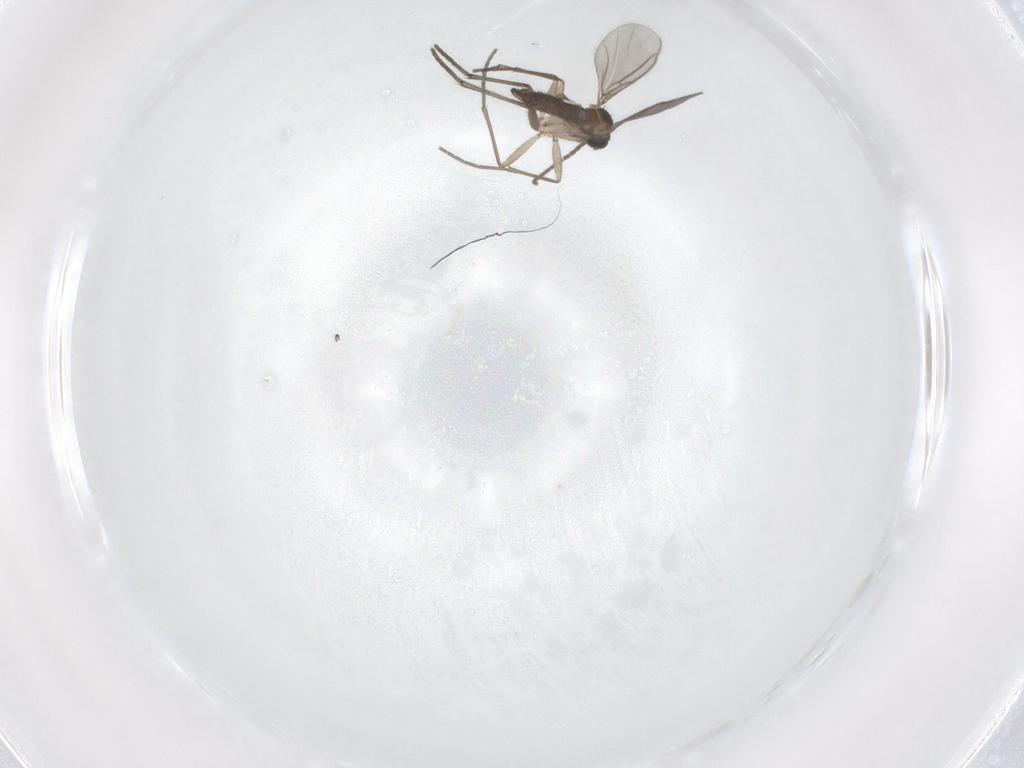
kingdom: Animalia
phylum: Arthropoda
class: Insecta
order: Diptera
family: Sciaridae
